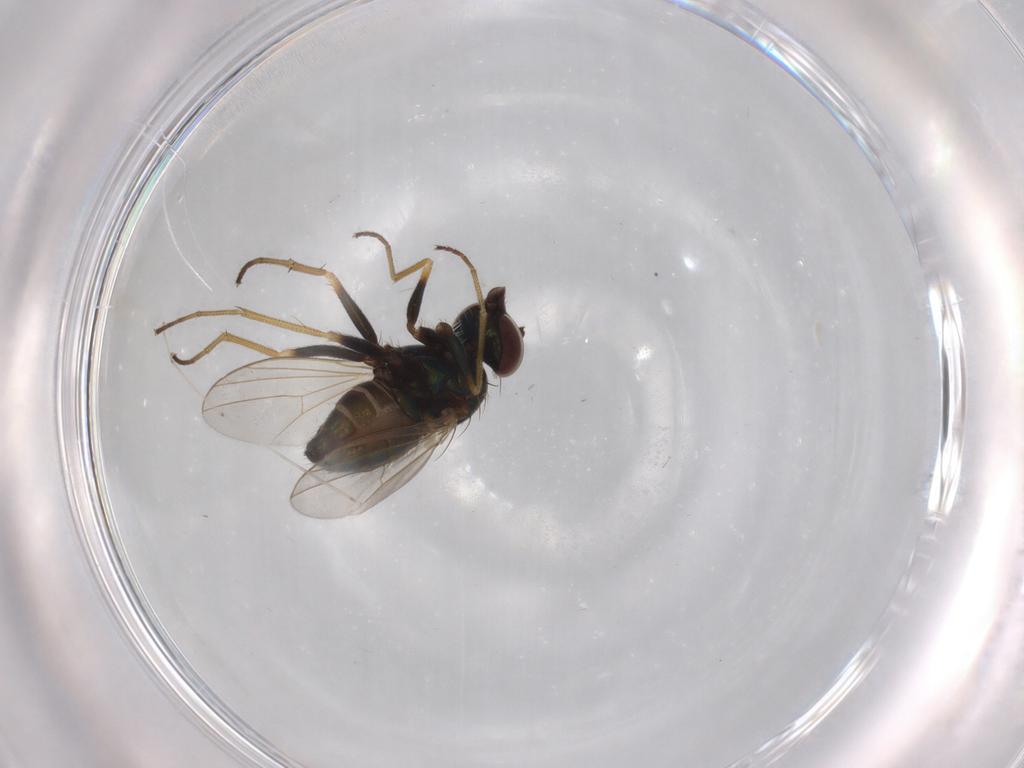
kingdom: Animalia
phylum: Arthropoda
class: Insecta
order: Diptera
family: Dolichopodidae
